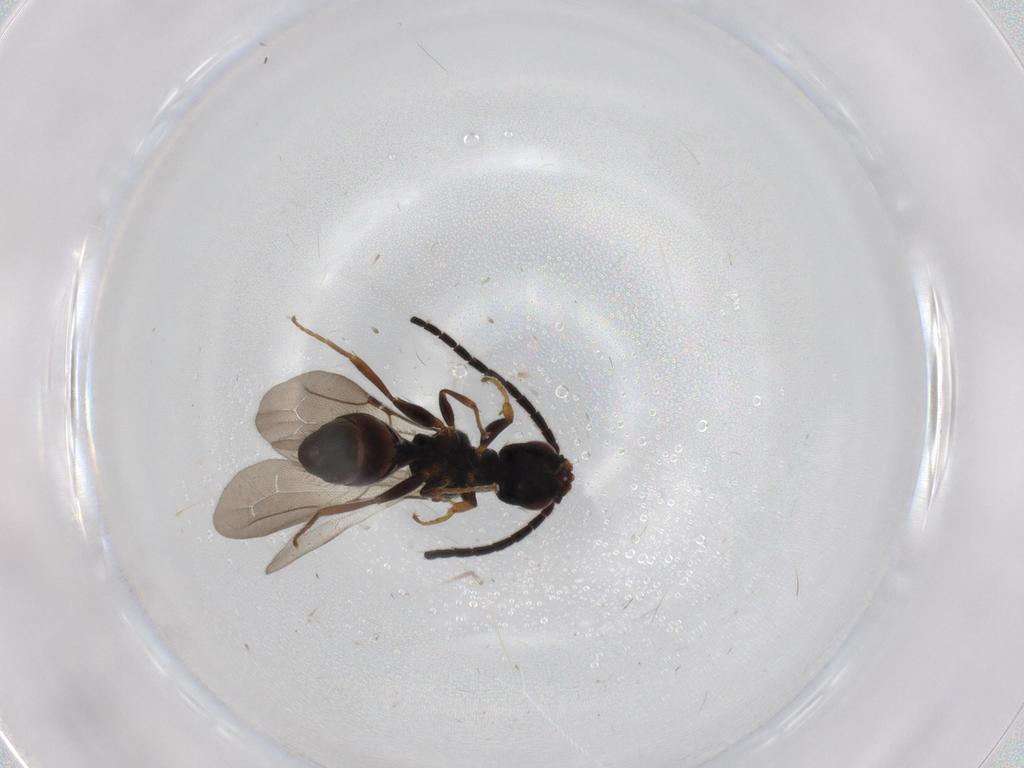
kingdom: Animalia
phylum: Arthropoda
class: Insecta
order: Hymenoptera
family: Bethylidae
